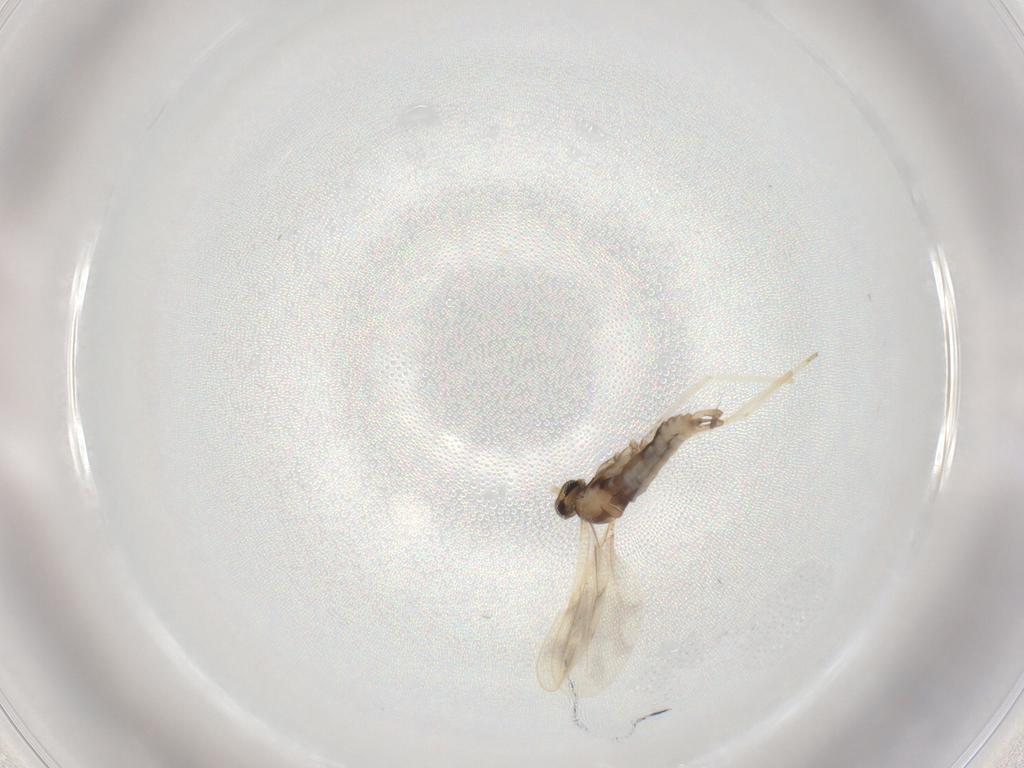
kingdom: Animalia
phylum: Arthropoda
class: Insecta
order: Diptera
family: Cecidomyiidae
